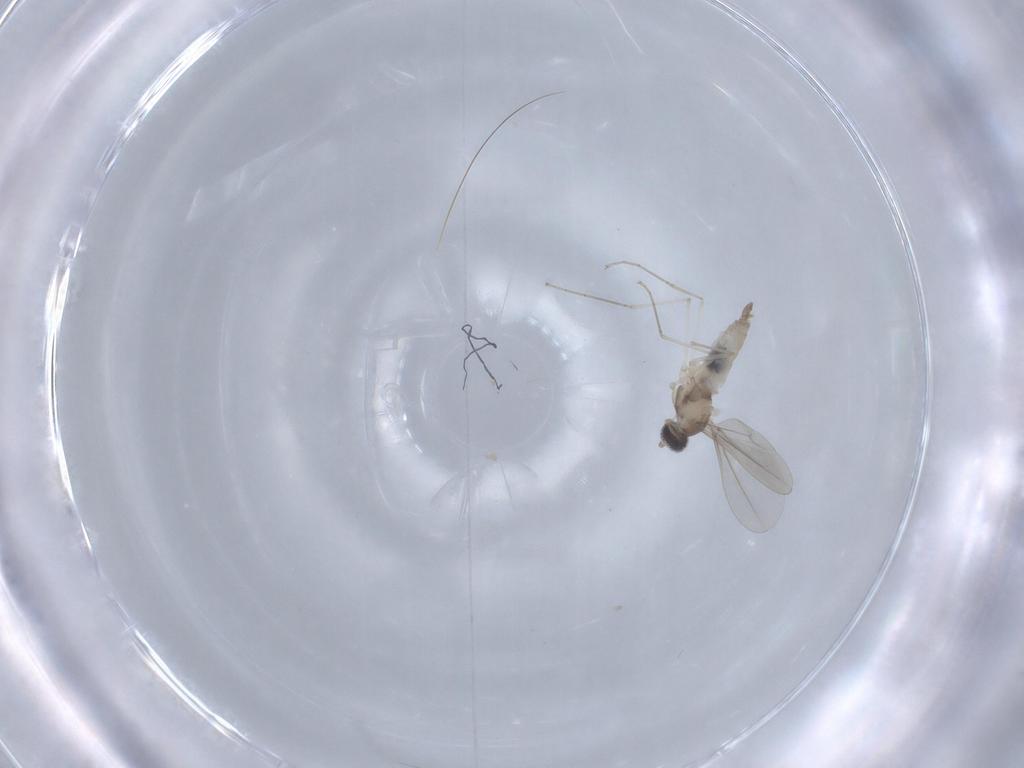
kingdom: Animalia
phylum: Arthropoda
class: Insecta
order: Diptera
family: Cecidomyiidae
